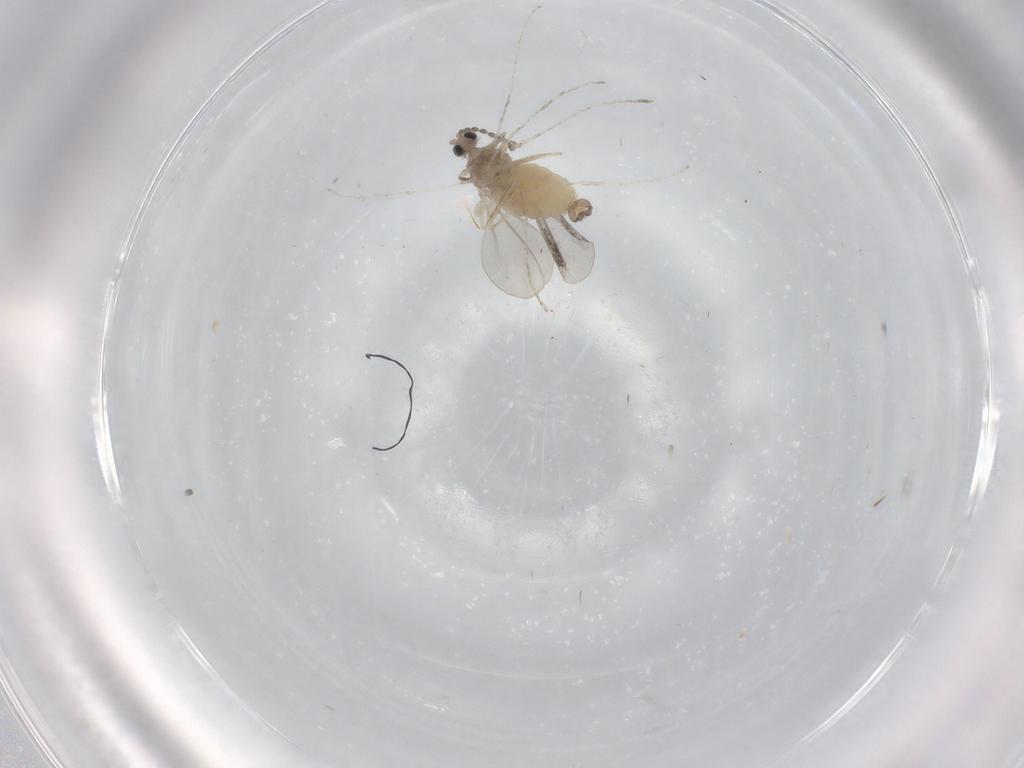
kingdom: Animalia
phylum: Arthropoda
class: Insecta
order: Diptera
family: Cecidomyiidae
